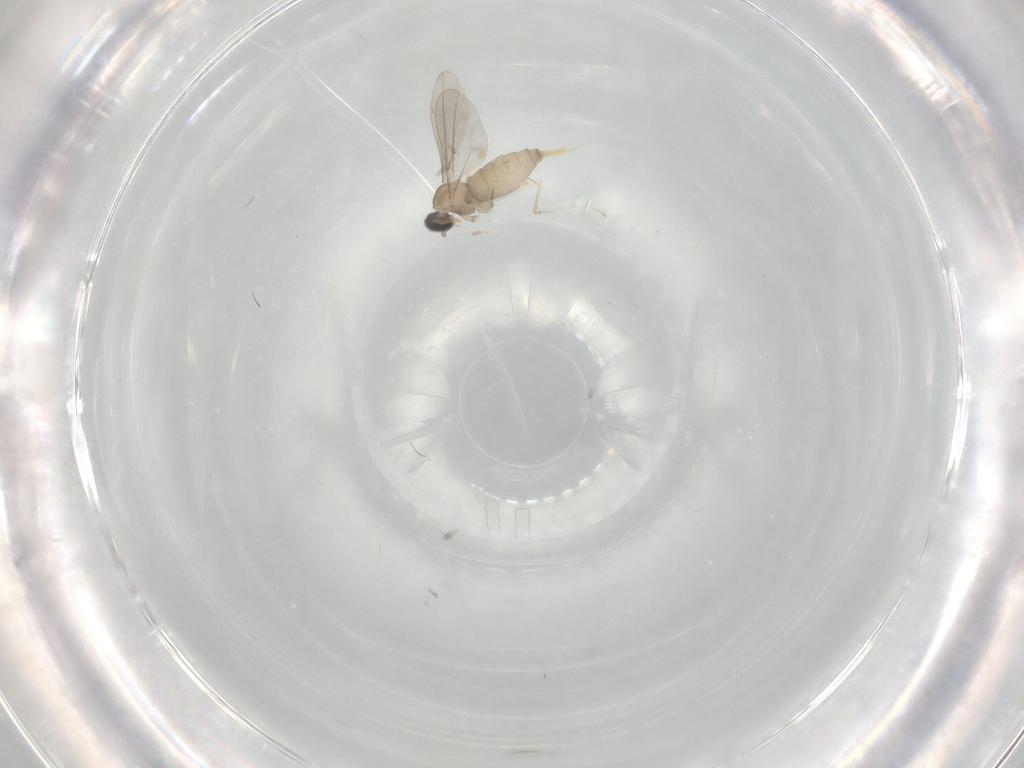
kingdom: Animalia
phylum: Arthropoda
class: Insecta
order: Diptera
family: Cecidomyiidae
